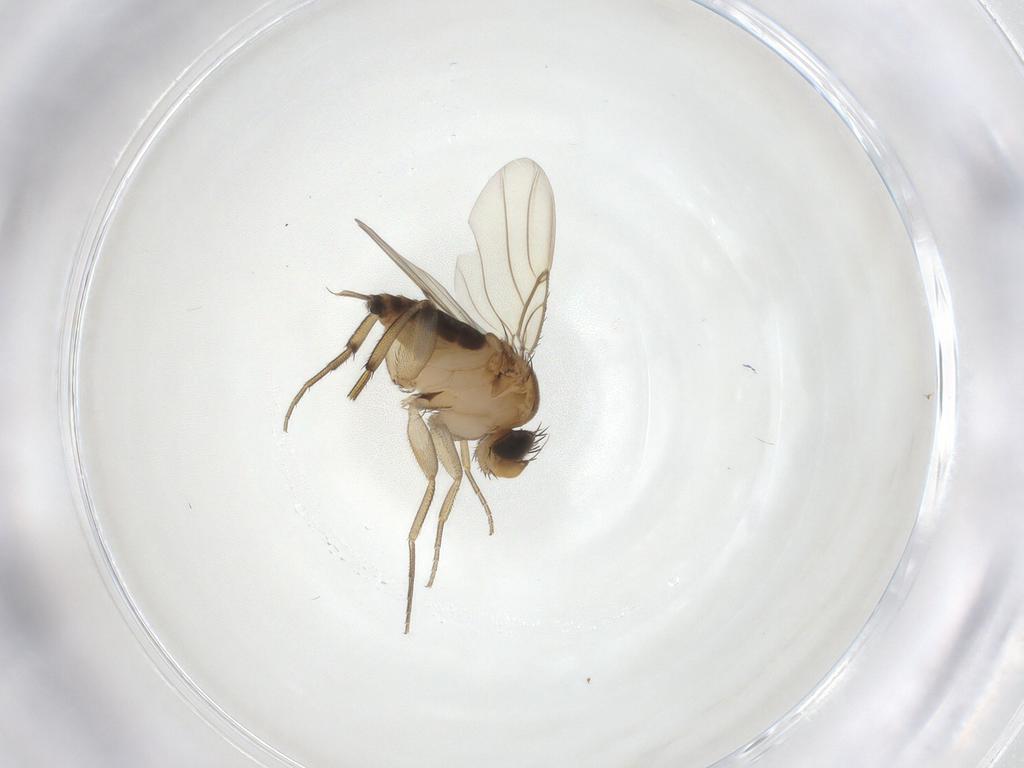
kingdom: Animalia
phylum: Arthropoda
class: Insecta
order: Diptera
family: Phoridae
